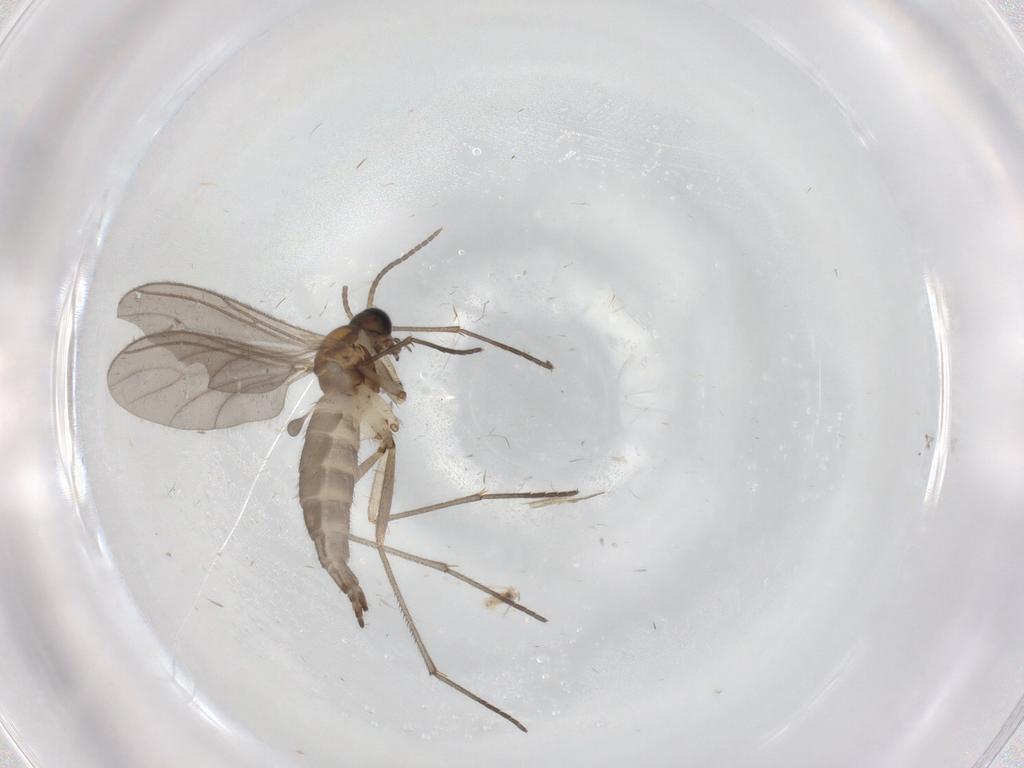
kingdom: Animalia
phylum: Arthropoda
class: Insecta
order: Diptera
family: Sciaridae
